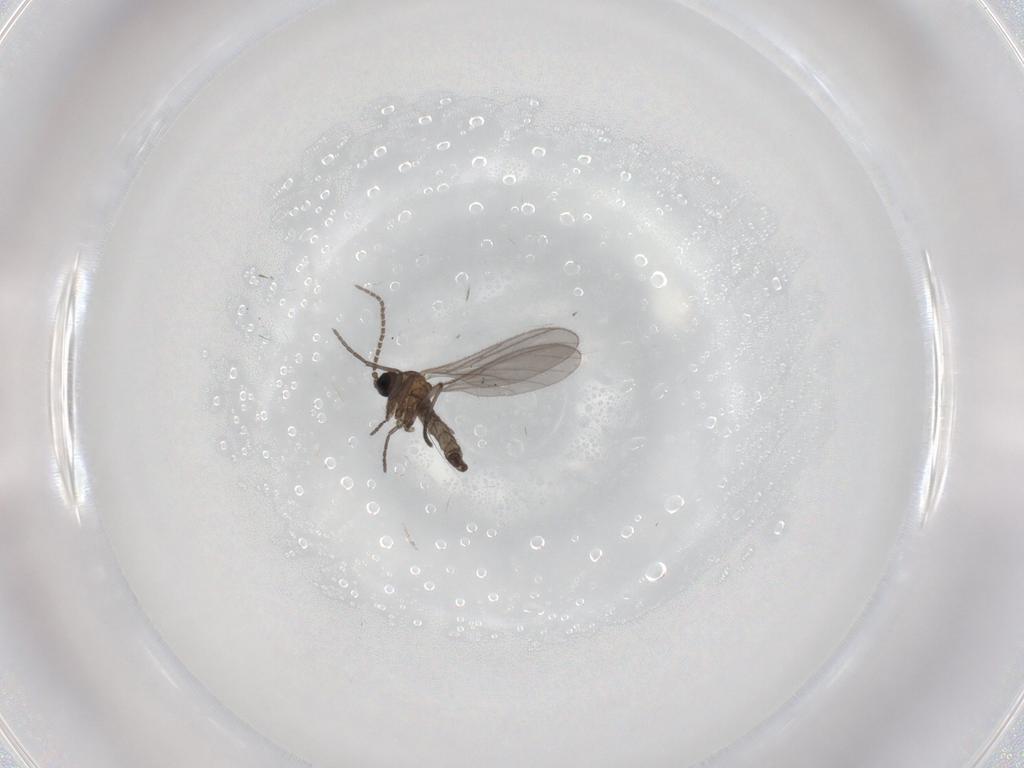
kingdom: Animalia
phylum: Arthropoda
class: Insecta
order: Diptera
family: Sciaridae
